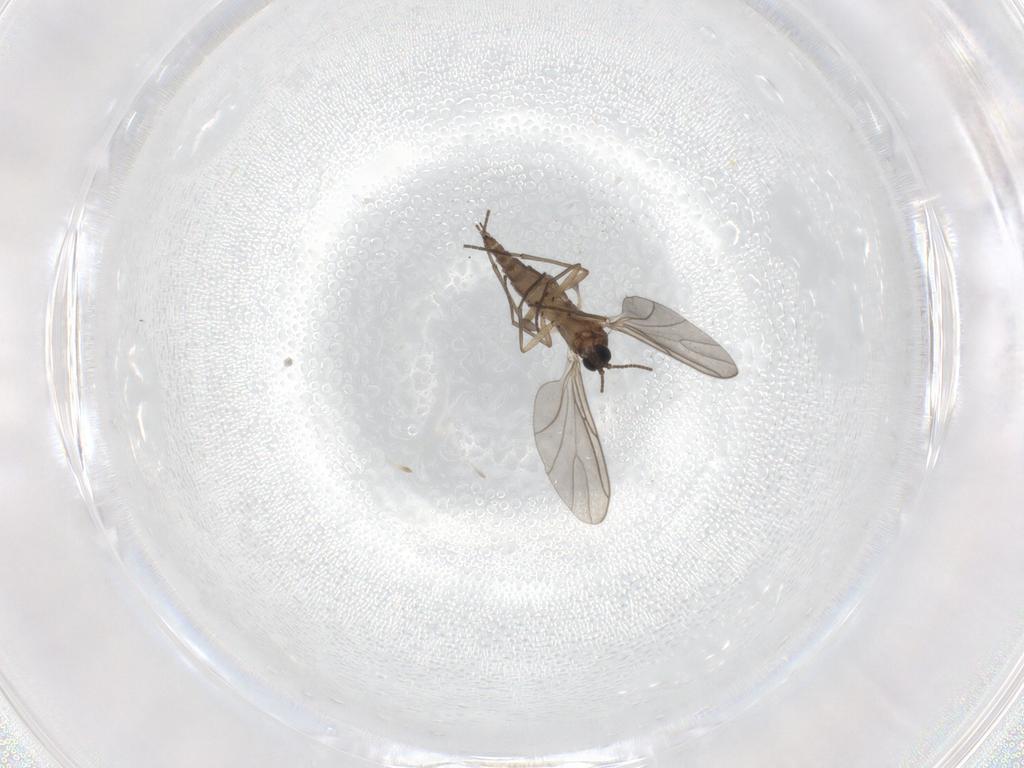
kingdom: Animalia
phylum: Arthropoda
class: Insecta
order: Diptera
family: Sciaridae
